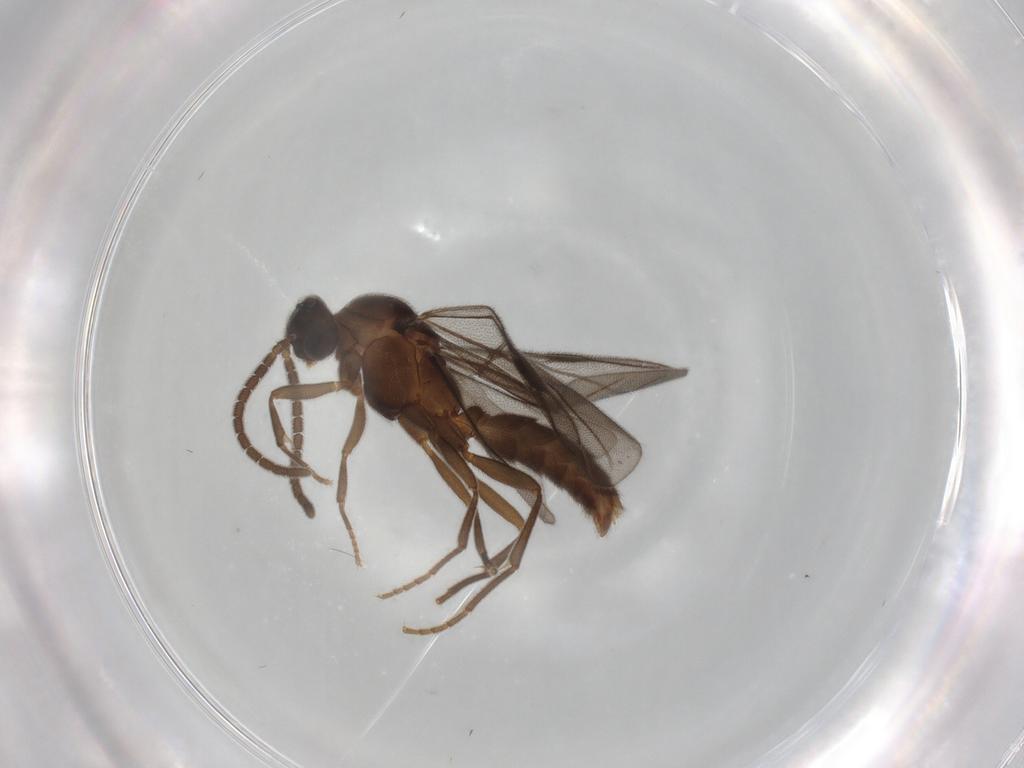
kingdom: Animalia
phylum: Arthropoda
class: Insecta
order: Hymenoptera
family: Formicidae
